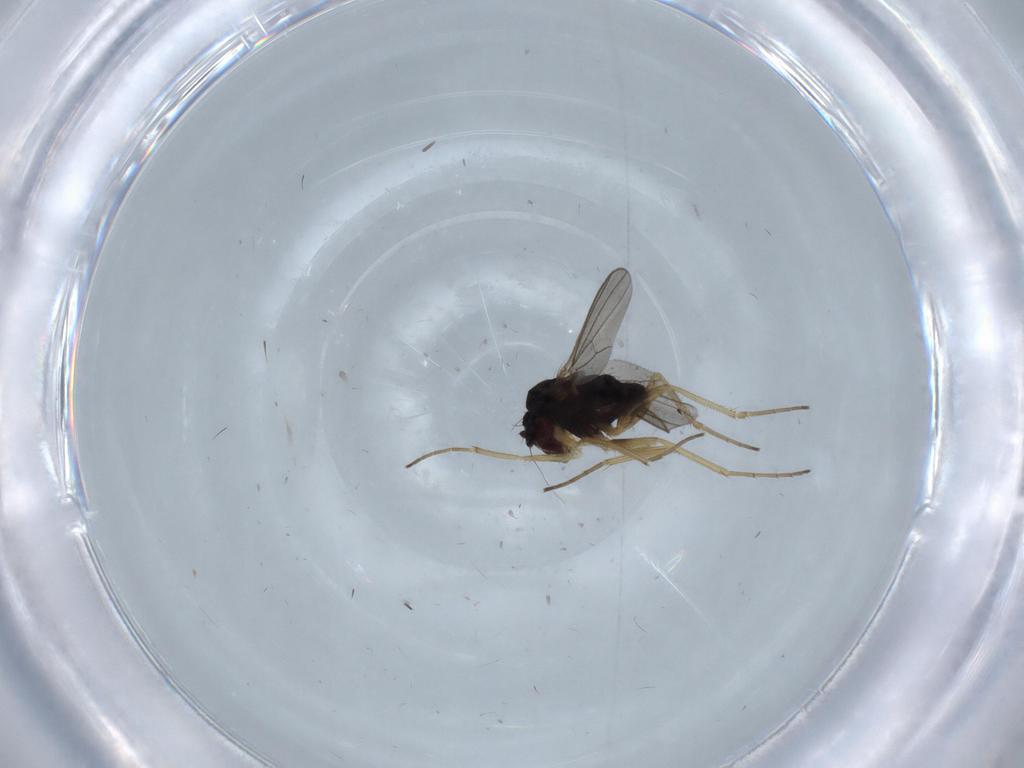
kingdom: Animalia
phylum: Arthropoda
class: Insecta
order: Diptera
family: Dolichopodidae
